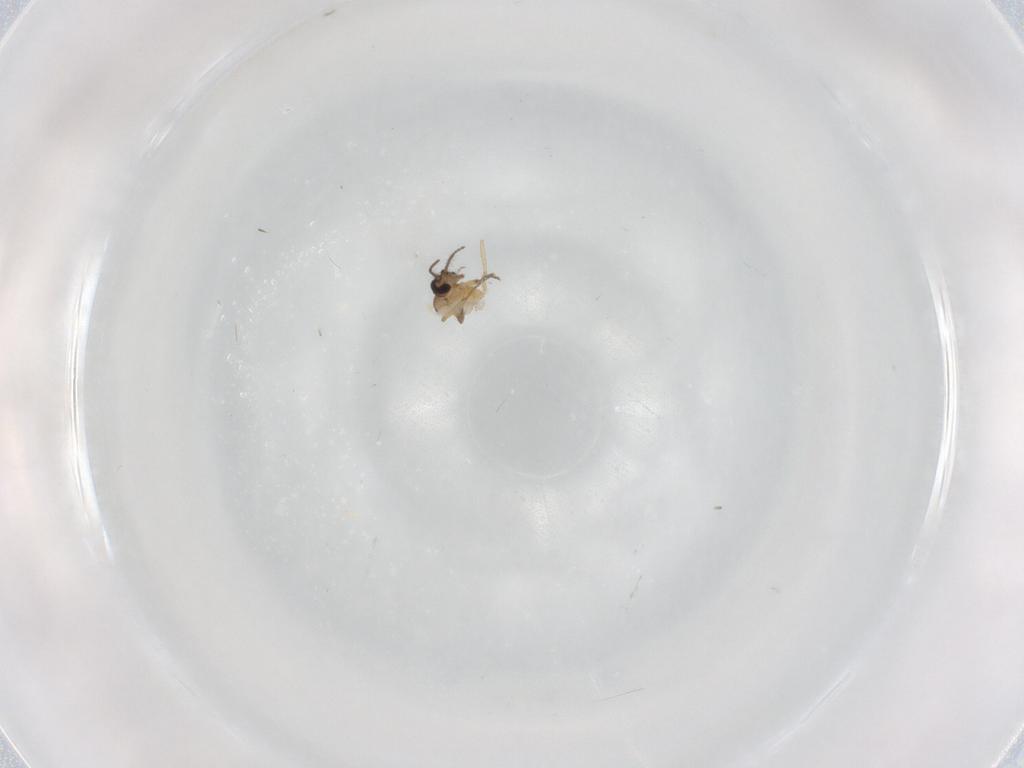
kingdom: Animalia
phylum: Arthropoda
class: Insecta
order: Diptera
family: Ceratopogonidae
